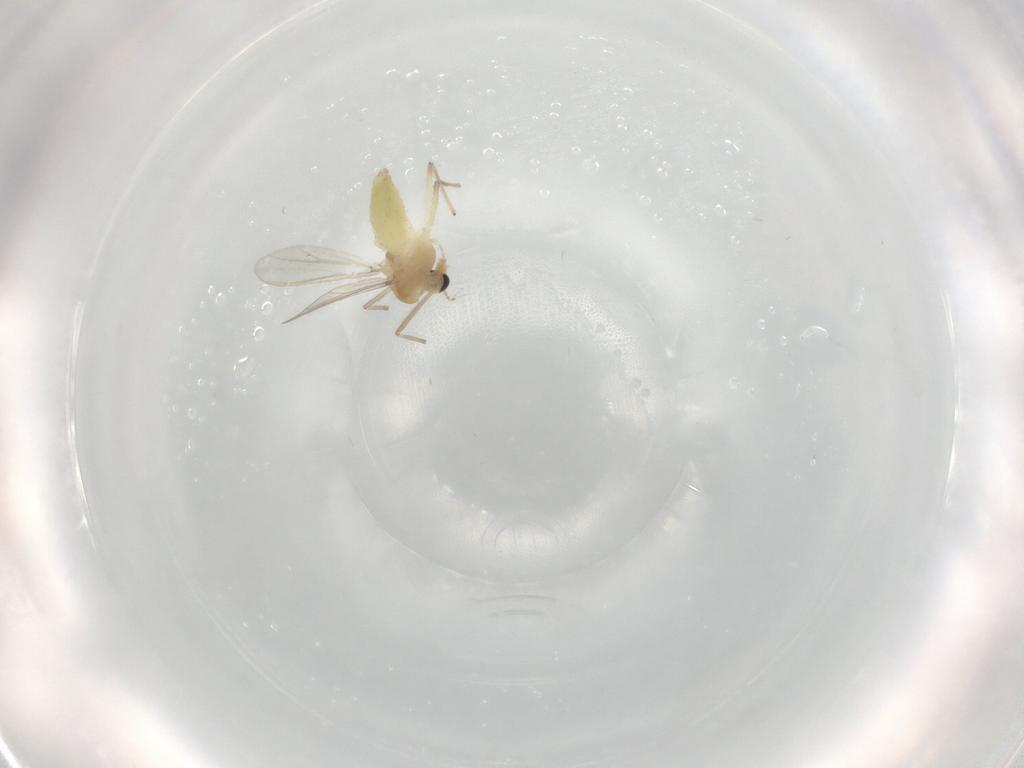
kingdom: Animalia
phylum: Arthropoda
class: Insecta
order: Diptera
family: Chironomidae
